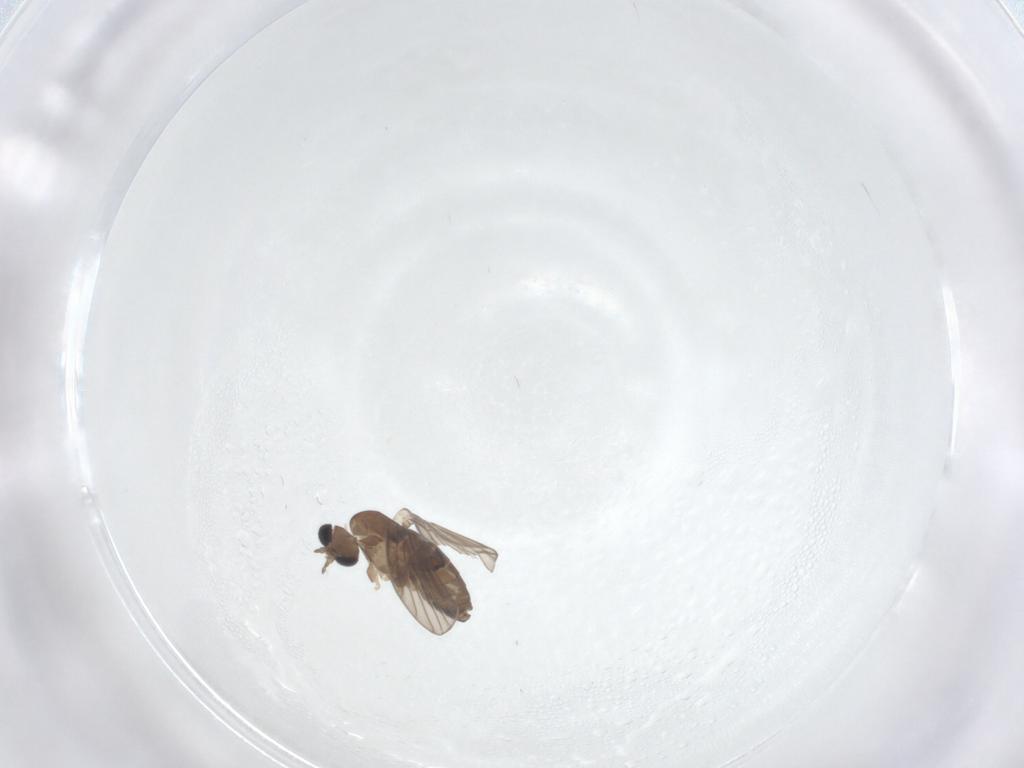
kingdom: Animalia
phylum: Arthropoda
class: Insecta
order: Diptera
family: Psychodidae
